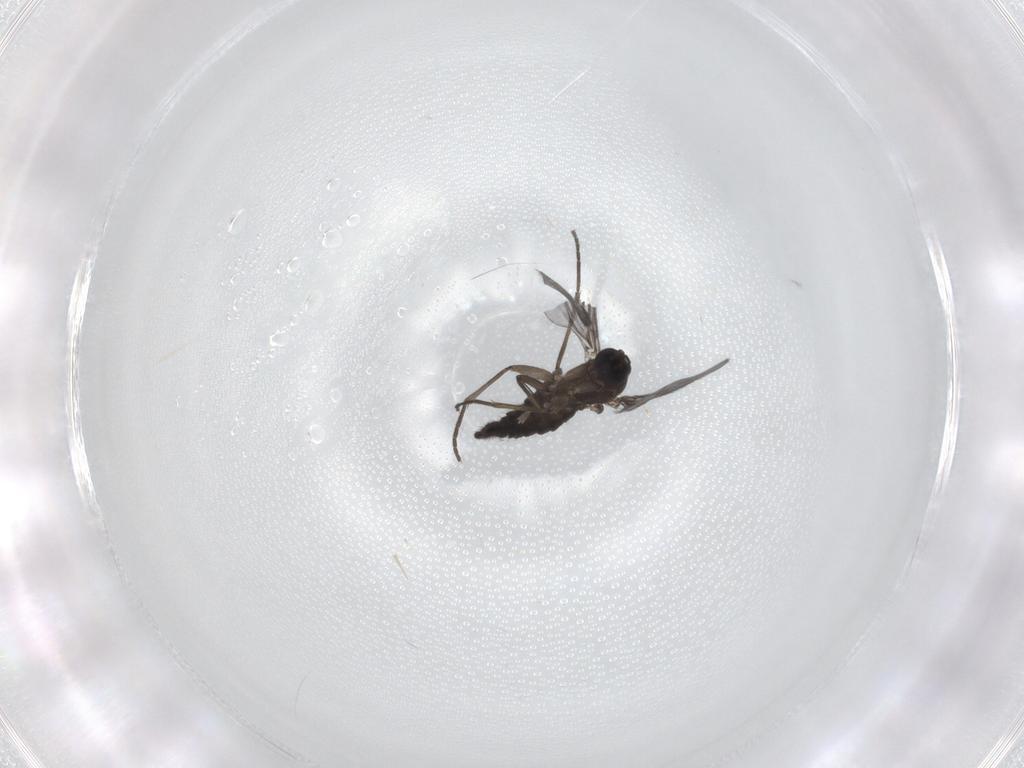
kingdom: Animalia
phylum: Arthropoda
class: Insecta
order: Diptera
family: Sciaridae
